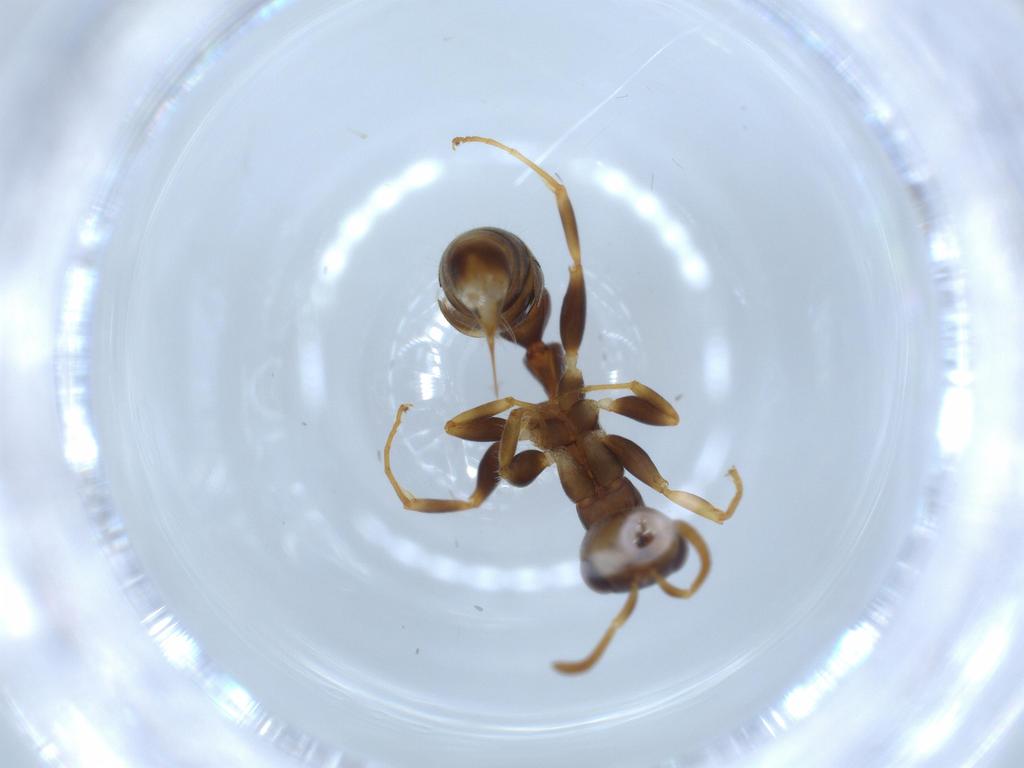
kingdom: Animalia
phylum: Arthropoda
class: Insecta
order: Hymenoptera
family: Formicidae
